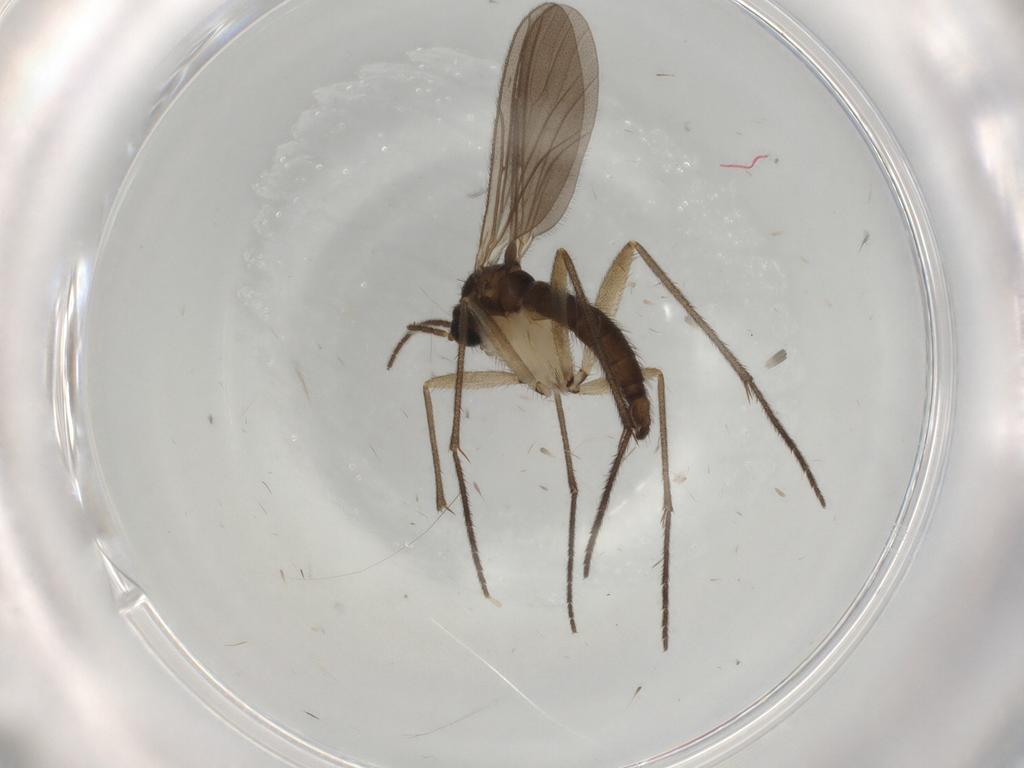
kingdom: Animalia
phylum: Arthropoda
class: Insecta
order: Diptera
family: Sciaridae
